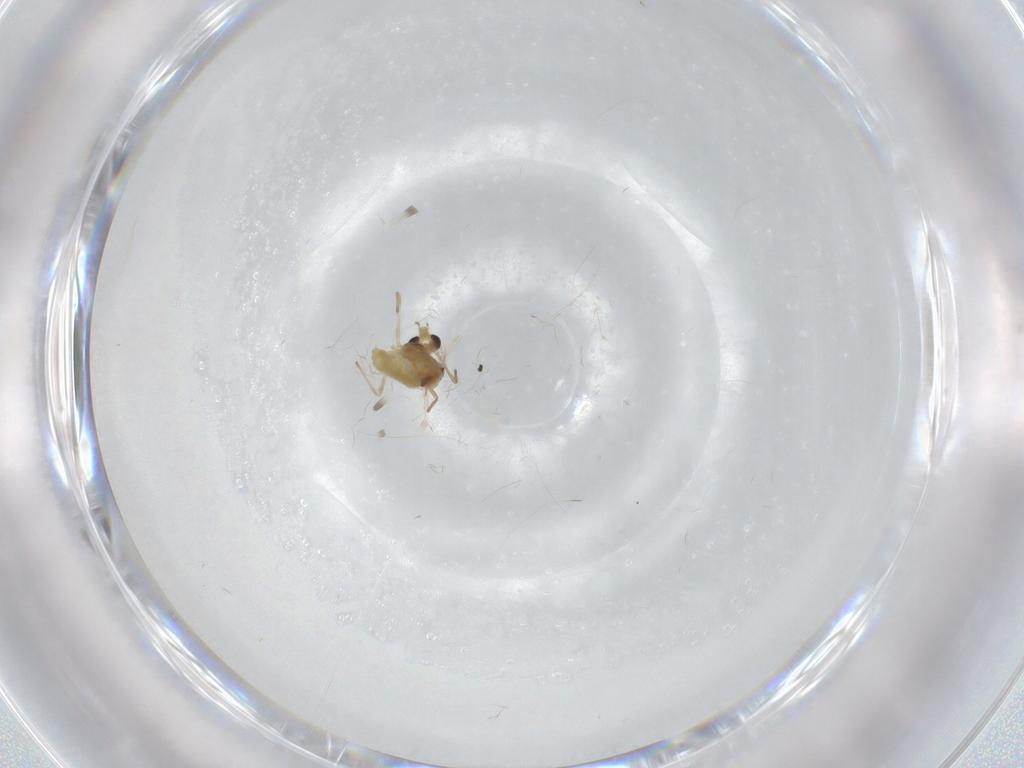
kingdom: Animalia
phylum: Arthropoda
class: Insecta
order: Diptera
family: Chironomidae
